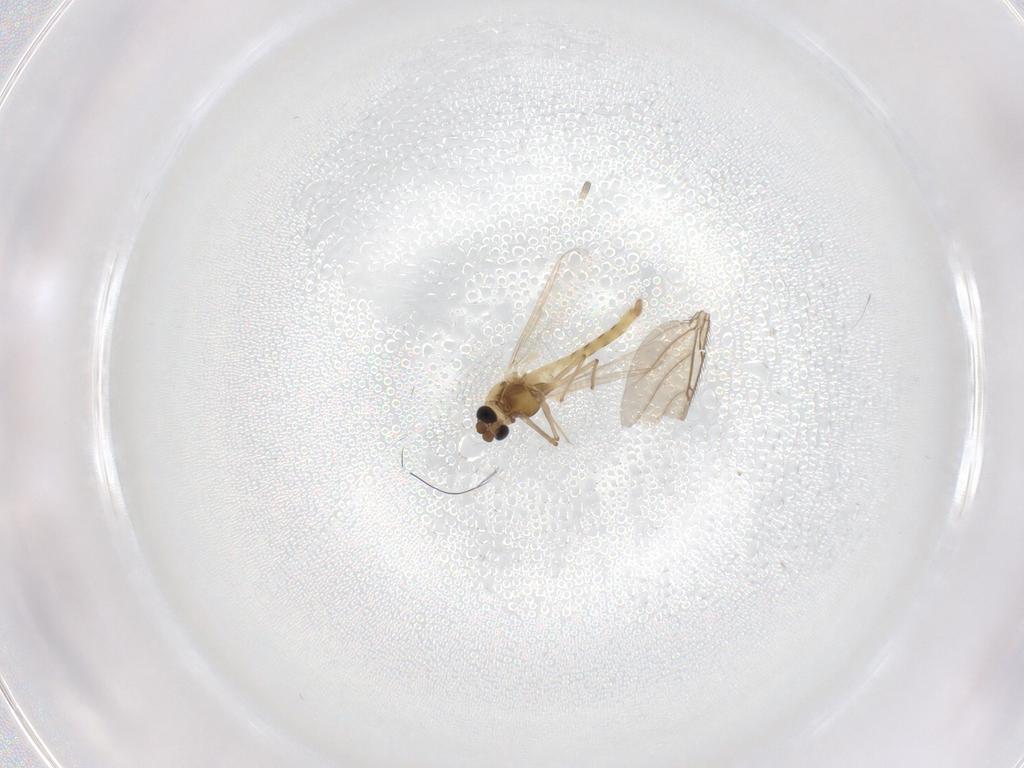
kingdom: Animalia
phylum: Arthropoda
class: Insecta
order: Diptera
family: Chironomidae
